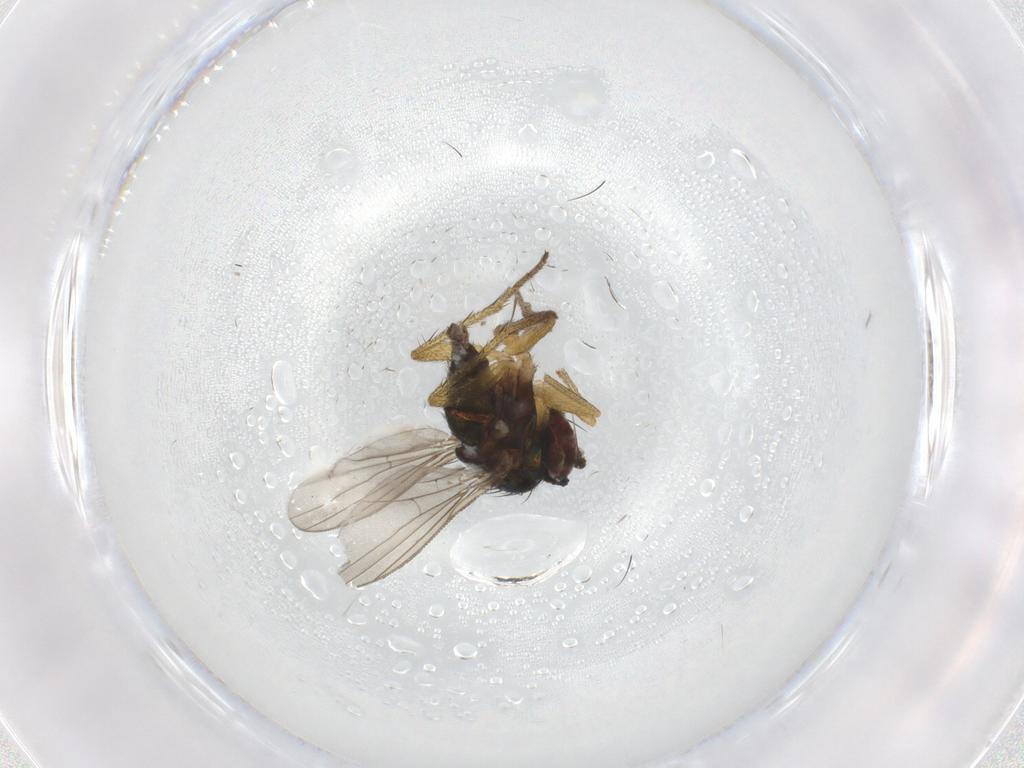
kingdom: Animalia
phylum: Arthropoda
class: Insecta
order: Diptera
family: Chironomidae
